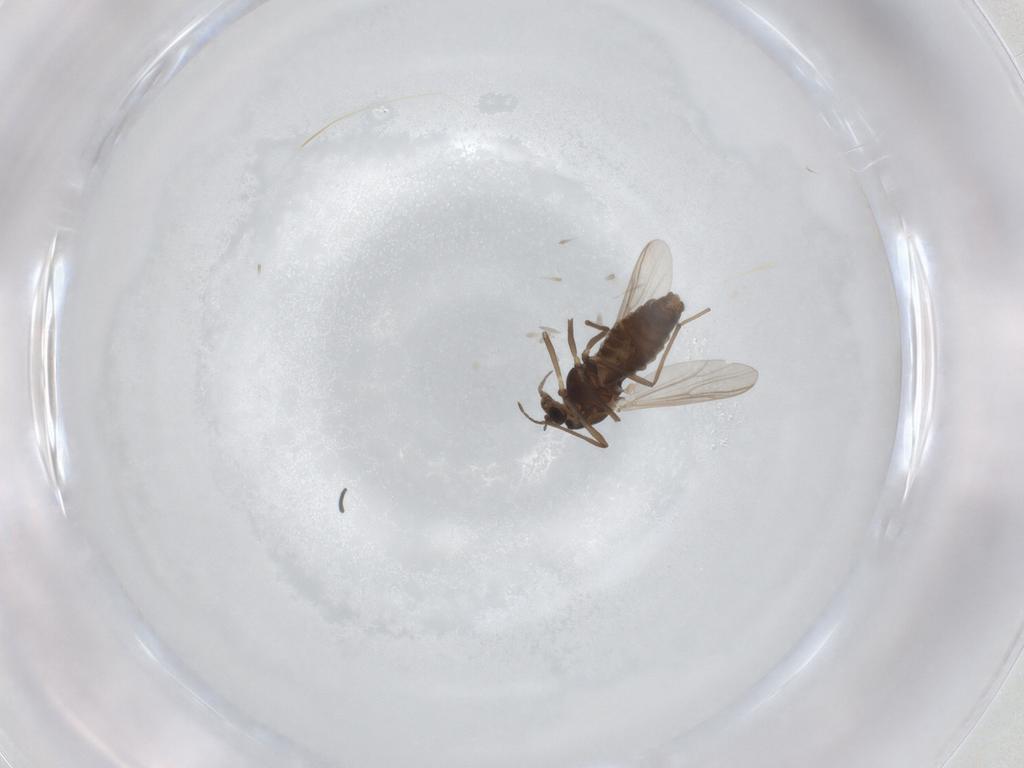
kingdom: Animalia
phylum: Arthropoda
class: Insecta
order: Diptera
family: Chironomidae
